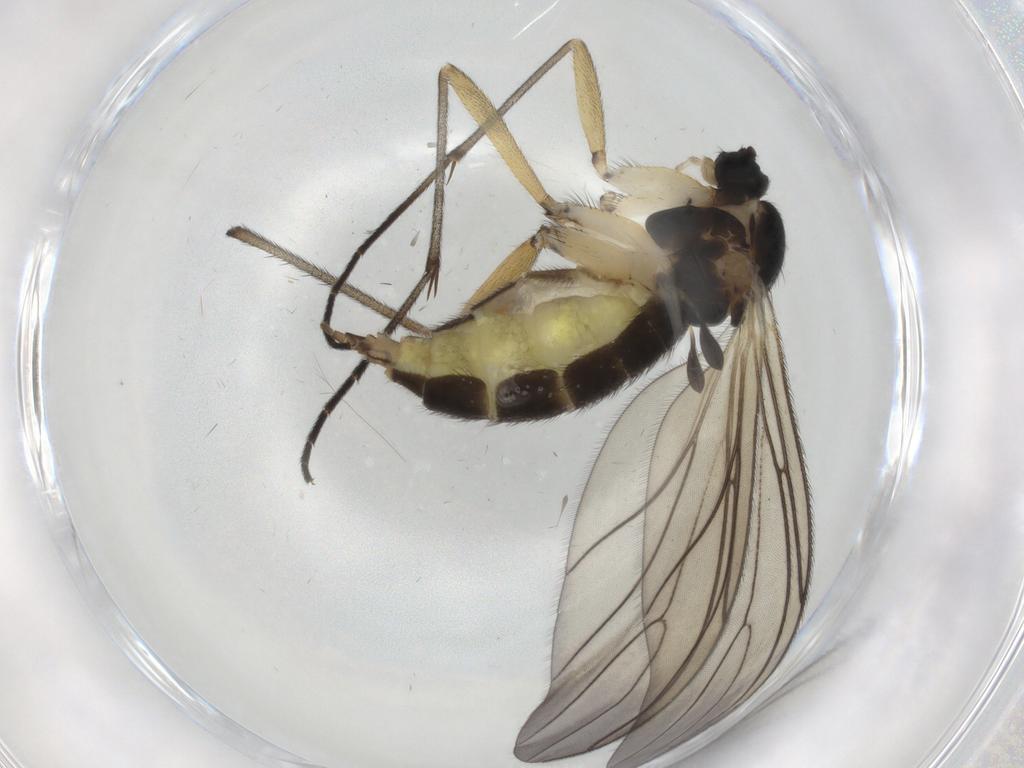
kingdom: Animalia
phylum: Arthropoda
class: Insecta
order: Diptera
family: Sciaridae
